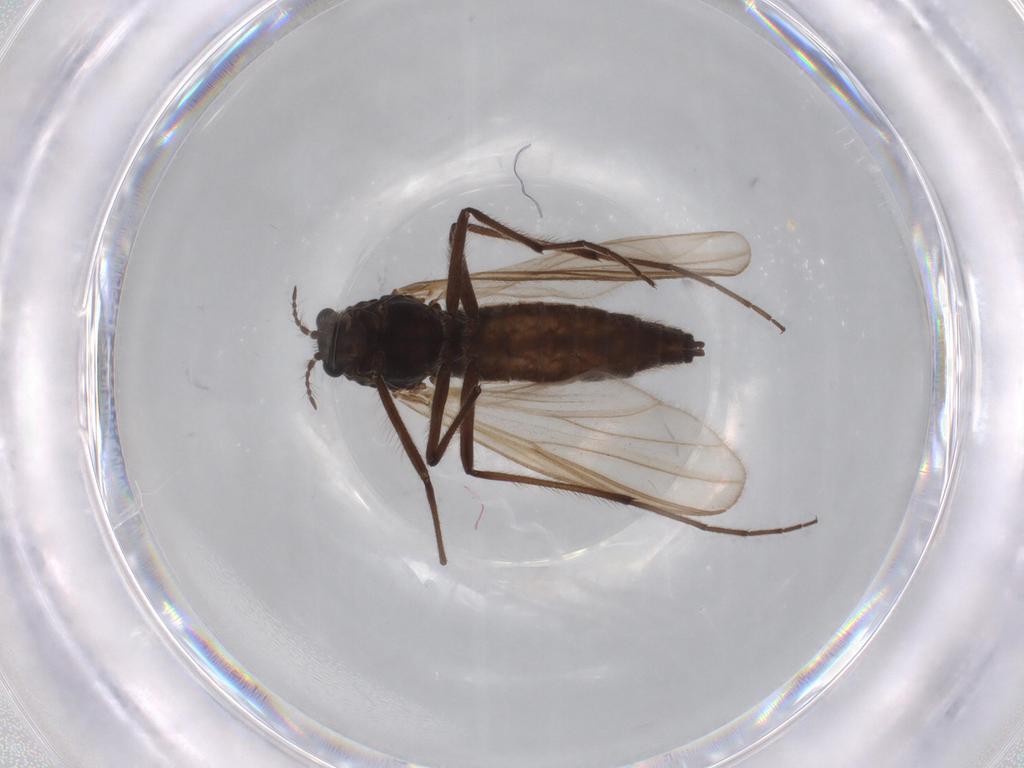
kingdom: Animalia
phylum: Arthropoda
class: Insecta
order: Diptera
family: Chironomidae
